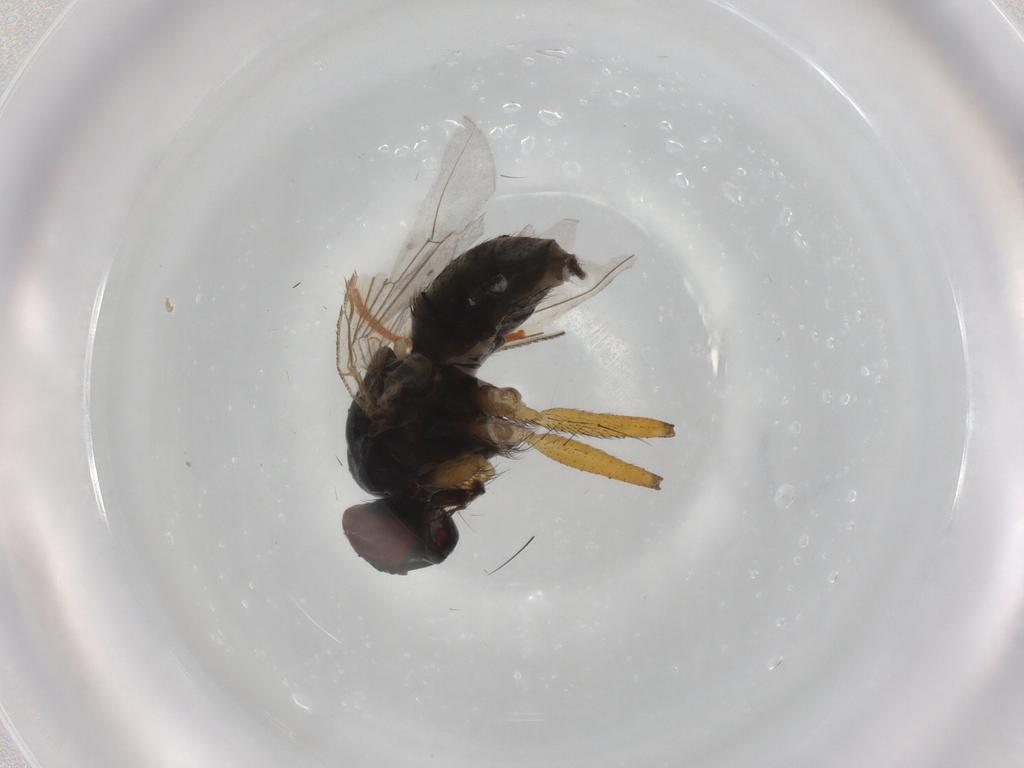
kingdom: Animalia
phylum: Arthropoda
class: Insecta
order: Diptera
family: Muscidae
